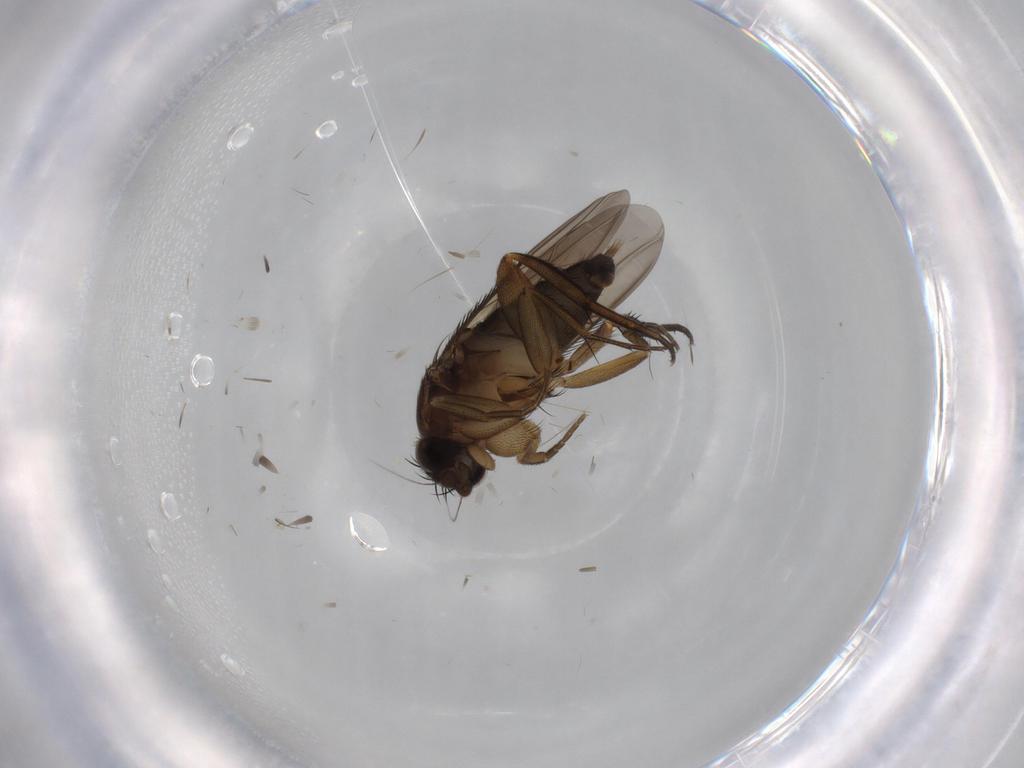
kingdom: Animalia
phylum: Arthropoda
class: Insecta
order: Diptera
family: Phoridae
